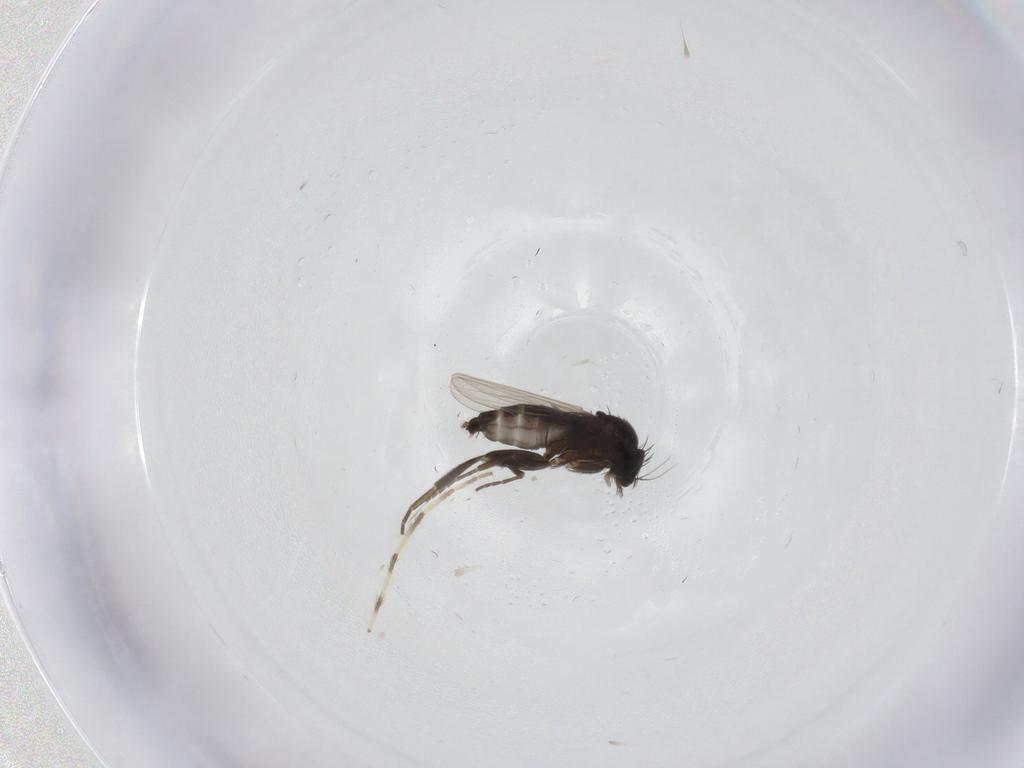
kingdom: Animalia
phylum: Arthropoda
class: Insecta
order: Diptera
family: Phoridae
